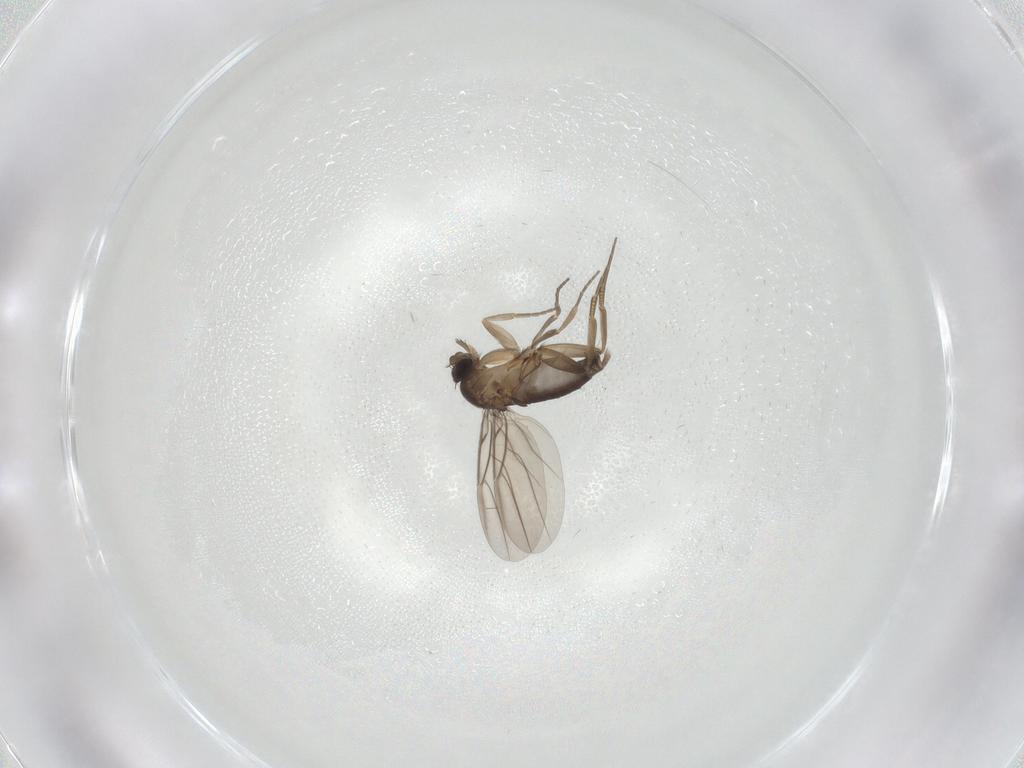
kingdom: Animalia
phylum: Arthropoda
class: Insecta
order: Diptera
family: Phoridae
